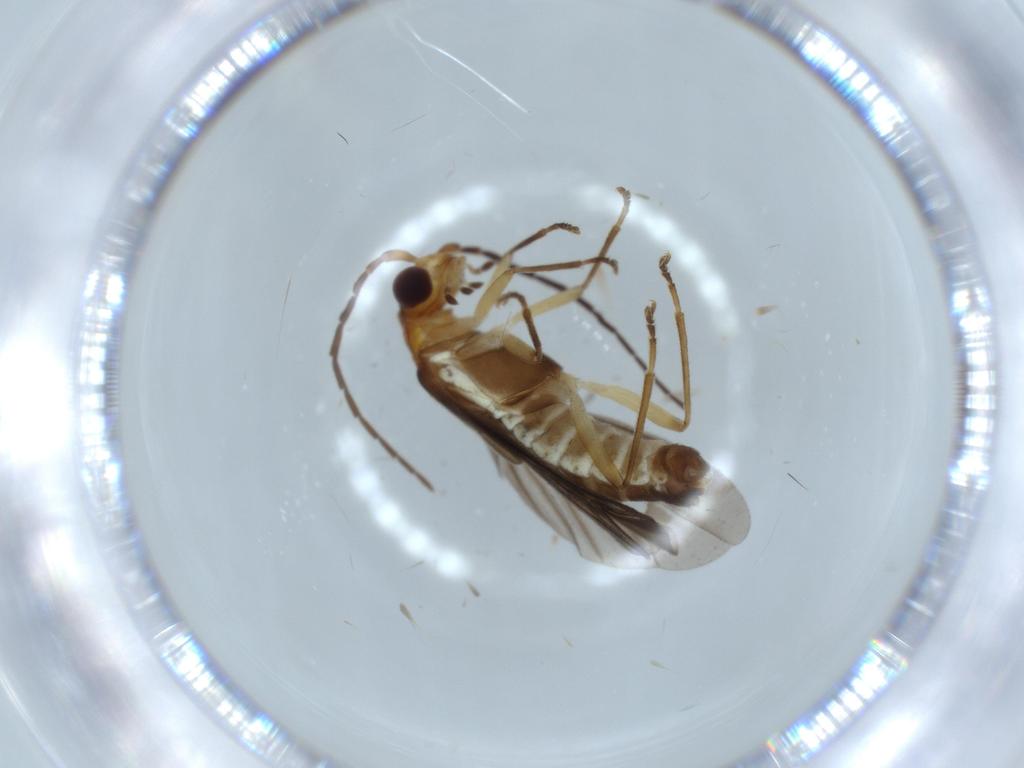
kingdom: Animalia
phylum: Arthropoda
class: Insecta
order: Coleoptera
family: Cantharidae
